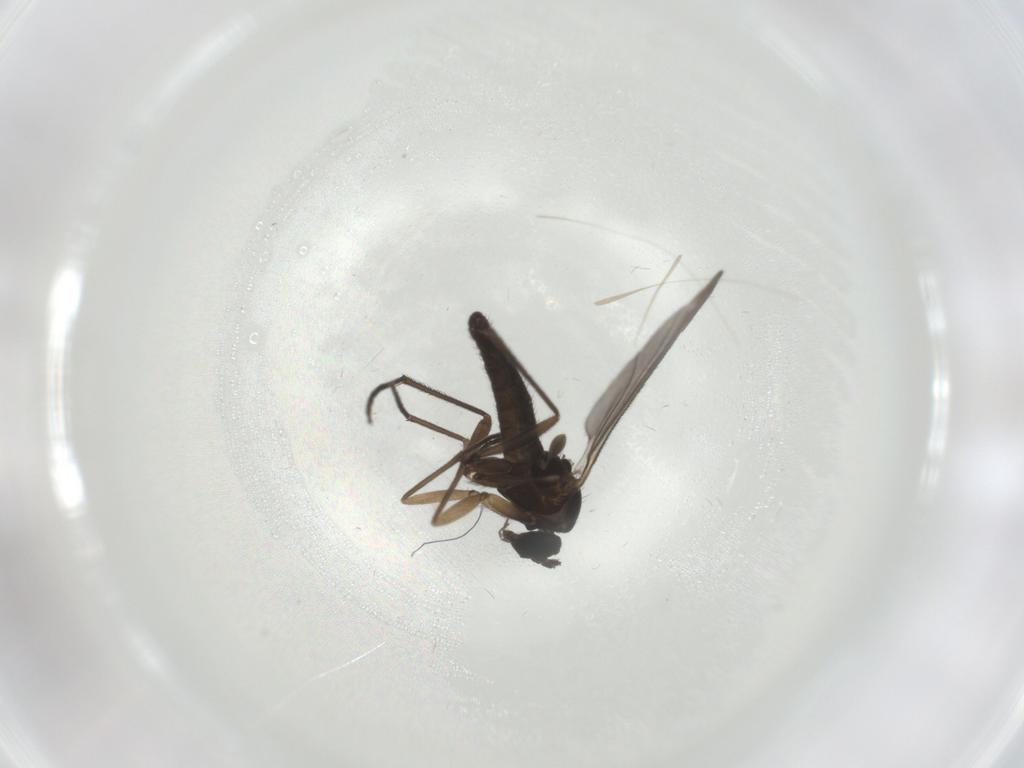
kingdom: Animalia
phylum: Arthropoda
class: Insecta
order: Diptera
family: Sciaridae
